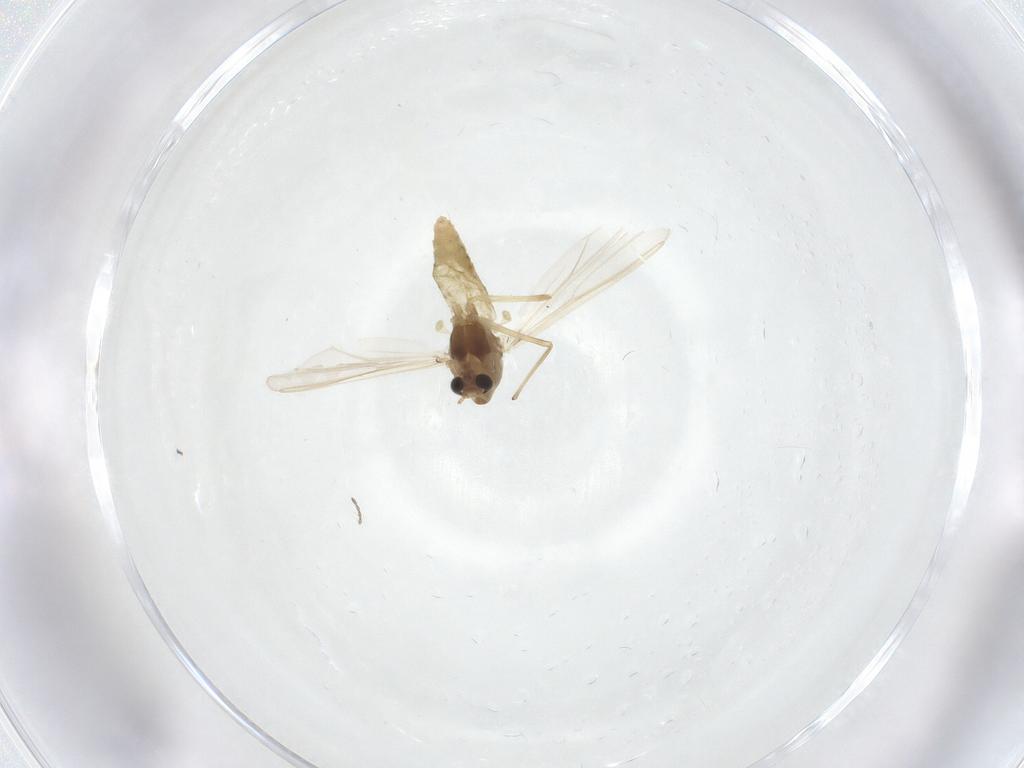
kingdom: Animalia
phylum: Arthropoda
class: Insecta
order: Diptera
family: Chironomidae
